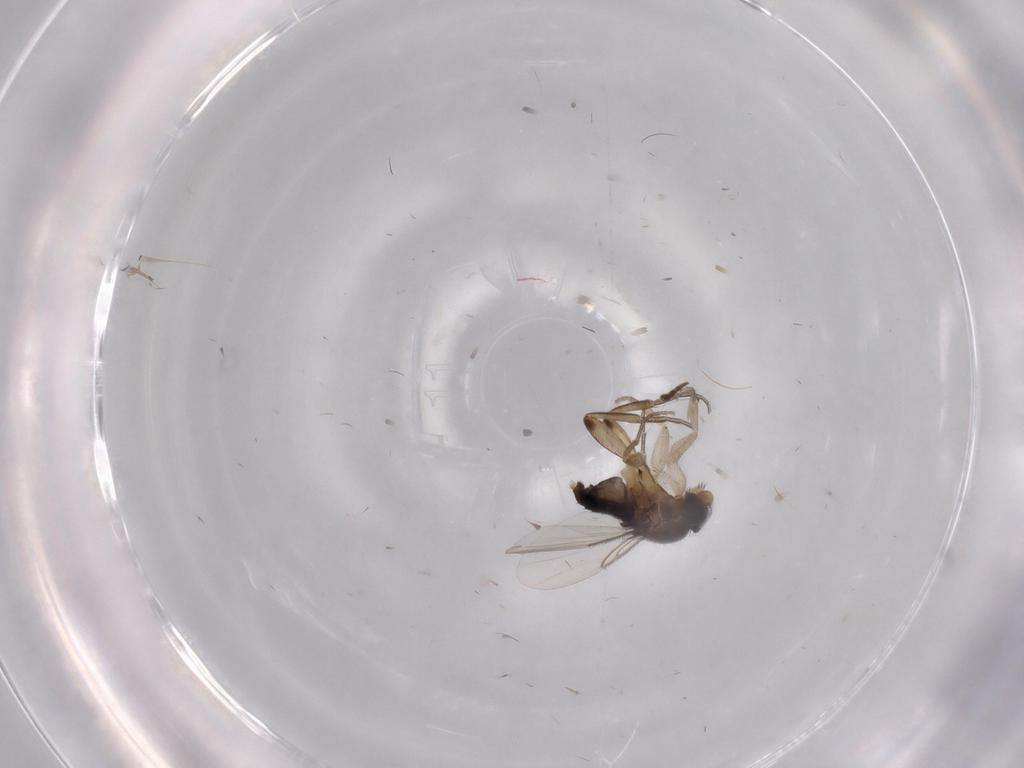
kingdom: Animalia
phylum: Arthropoda
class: Insecta
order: Diptera
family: Phoridae
